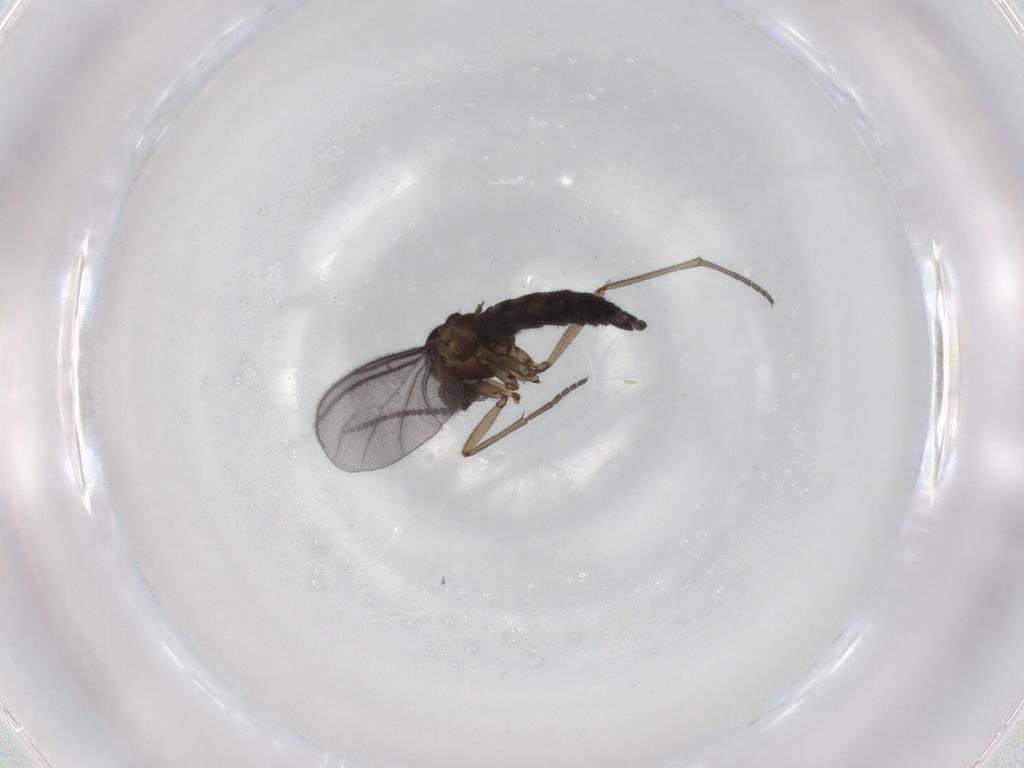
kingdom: Animalia
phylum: Arthropoda
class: Insecta
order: Diptera
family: Sciaridae
